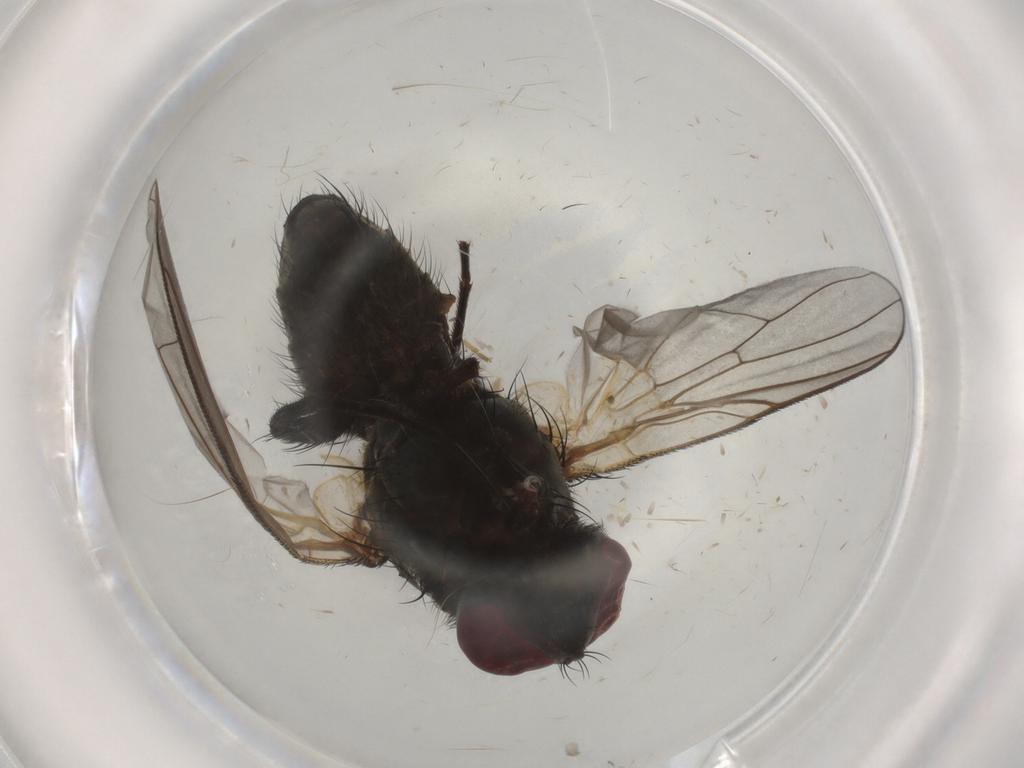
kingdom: Animalia
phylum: Arthropoda
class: Insecta
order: Diptera
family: Muscidae
